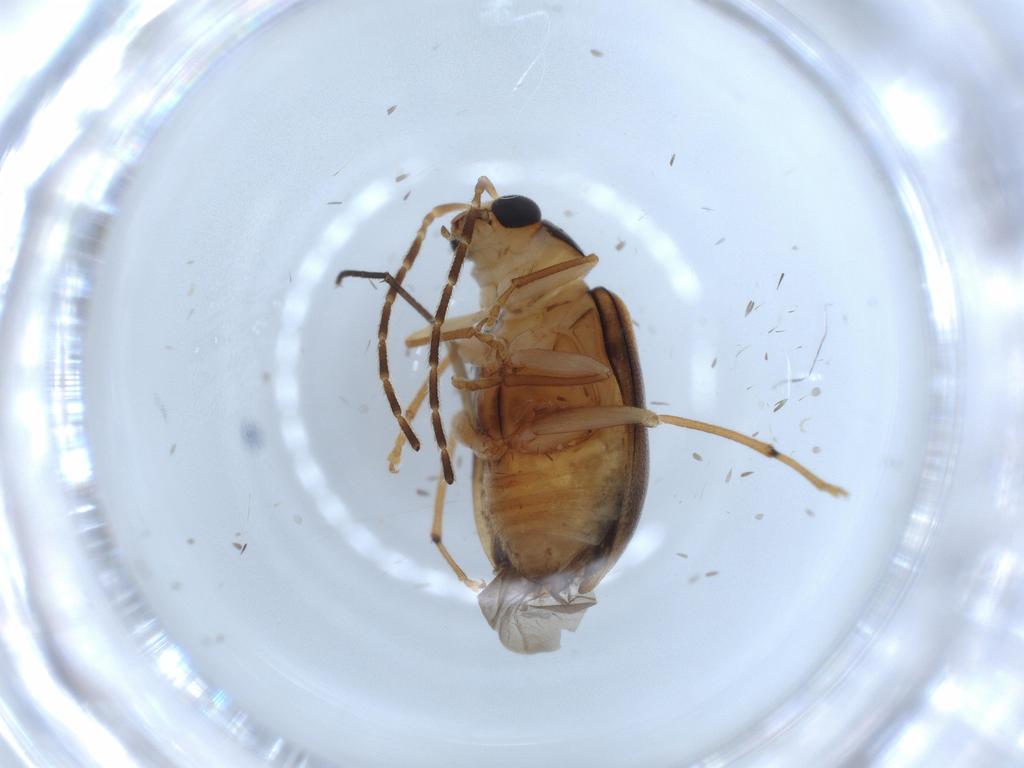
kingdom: Animalia
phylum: Arthropoda
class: Insecta
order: Coleoptera
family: Chrysomelidae
